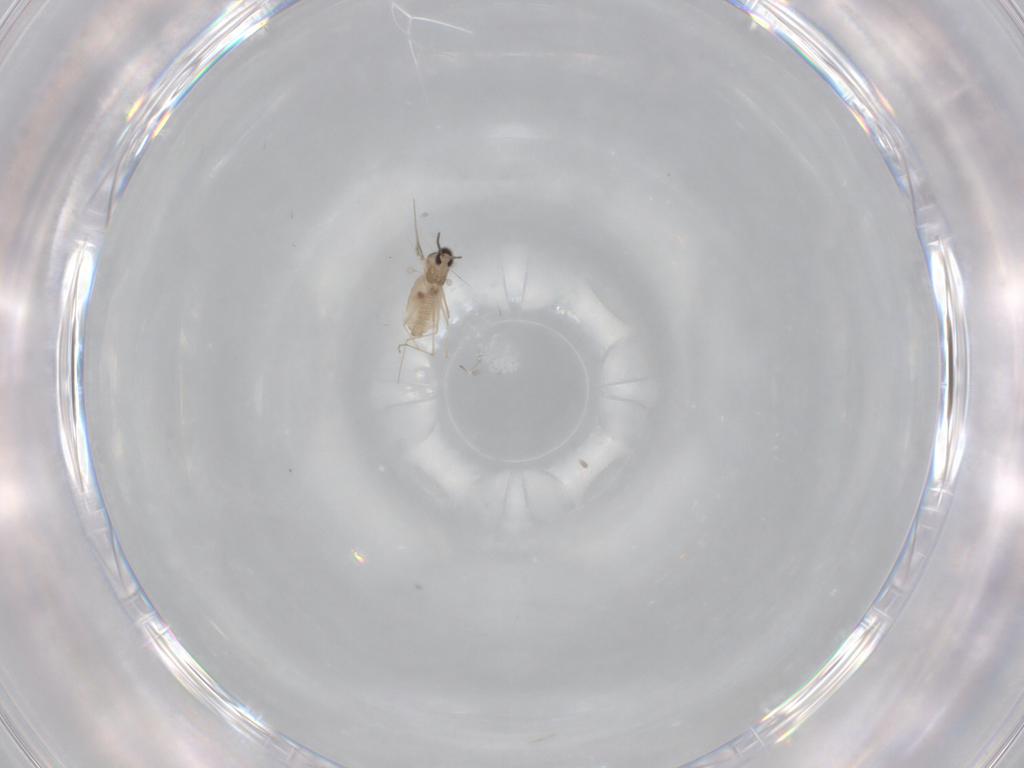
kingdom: Animalia
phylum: Arthropoda
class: Insecta
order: Diptera
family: Cecidomyiidae
